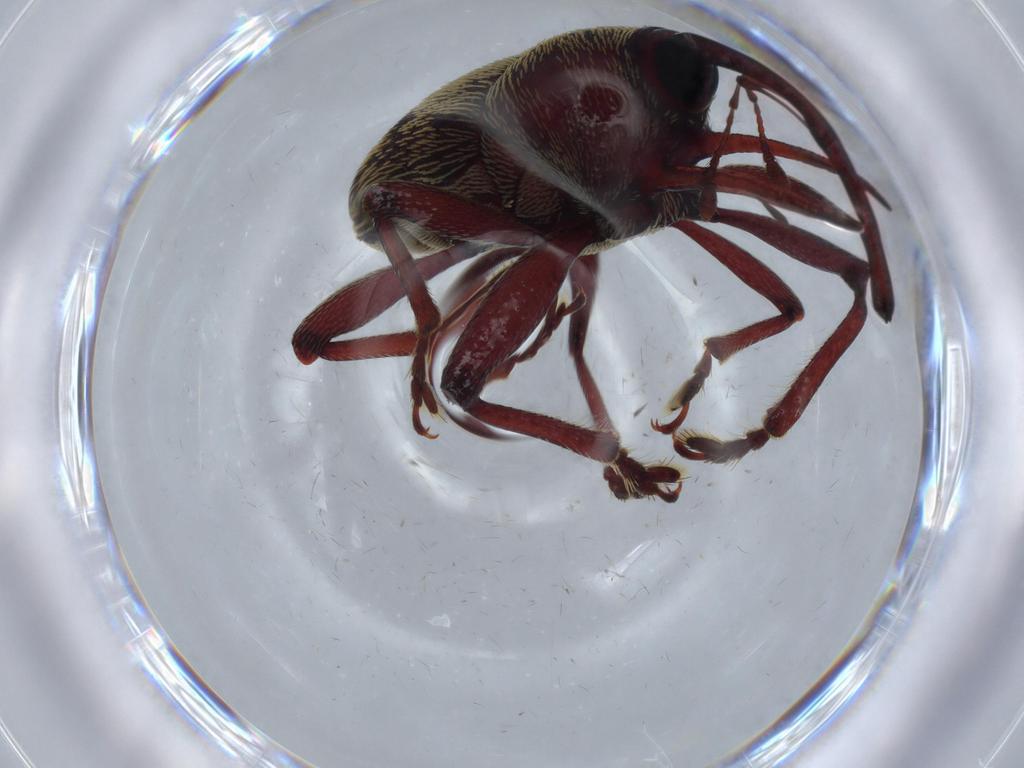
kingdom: Animalia
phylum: Arthropoda
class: Insecta
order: Coleoptera
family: Curculionidae
